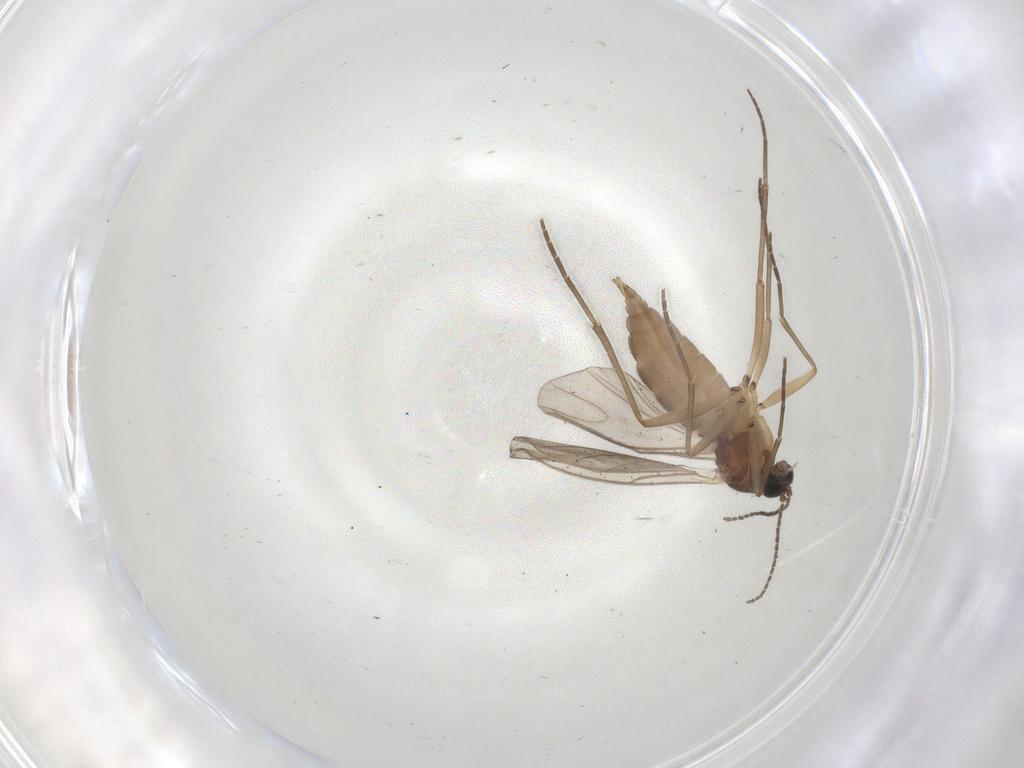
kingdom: Animalia
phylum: Arthropoda
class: Insecta
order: Diptera
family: Sciaridae
